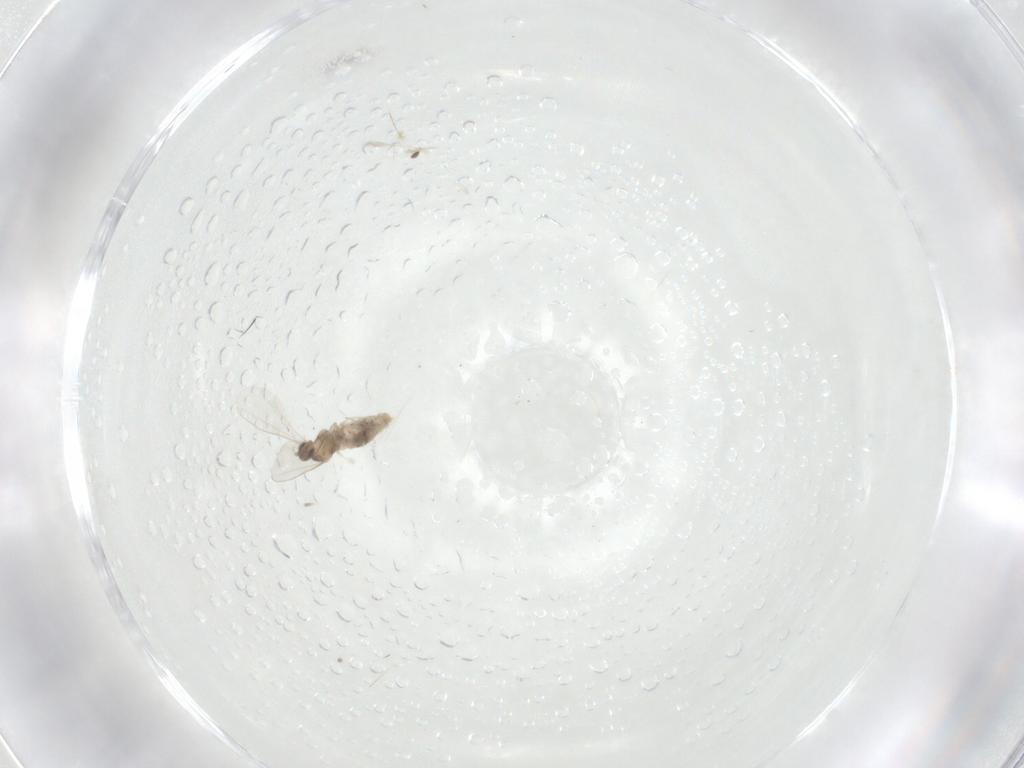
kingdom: Animalia
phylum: Arthropoda
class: Insecta
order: Diptera
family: Cecidomyiidae
